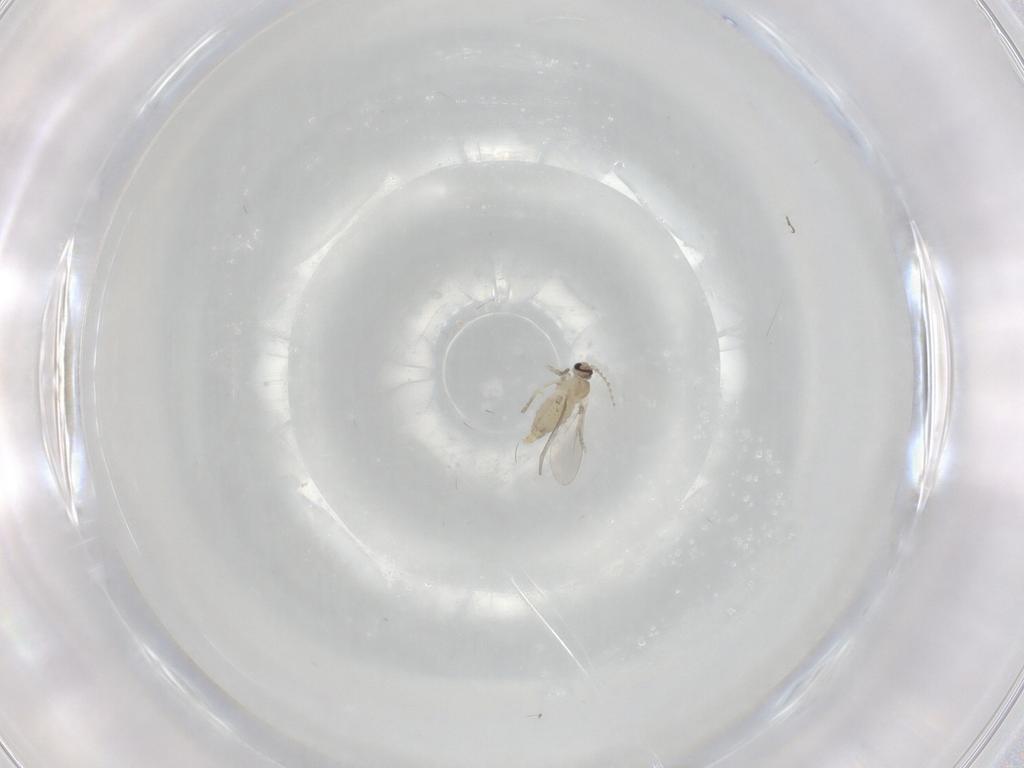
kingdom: Animalia
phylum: Arthropoda
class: Insecta
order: Diptera
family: Cecidomyiidae
